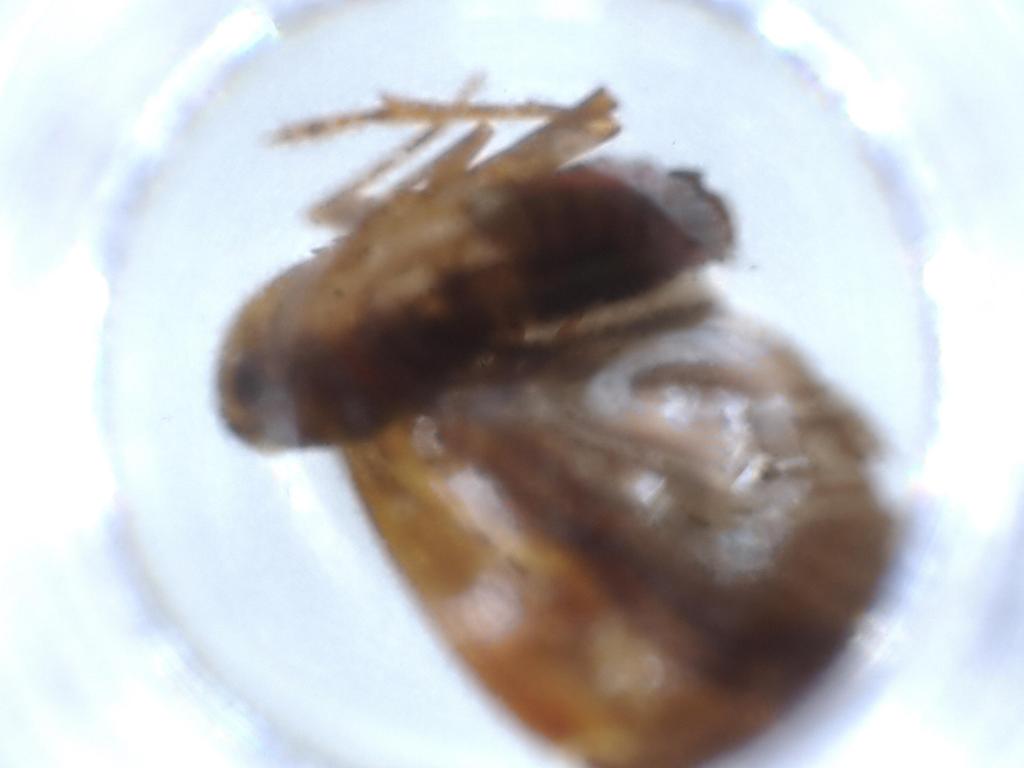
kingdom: Animalia
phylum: Arthropoda
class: Insecta
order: Hemiptera
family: Achilidae
